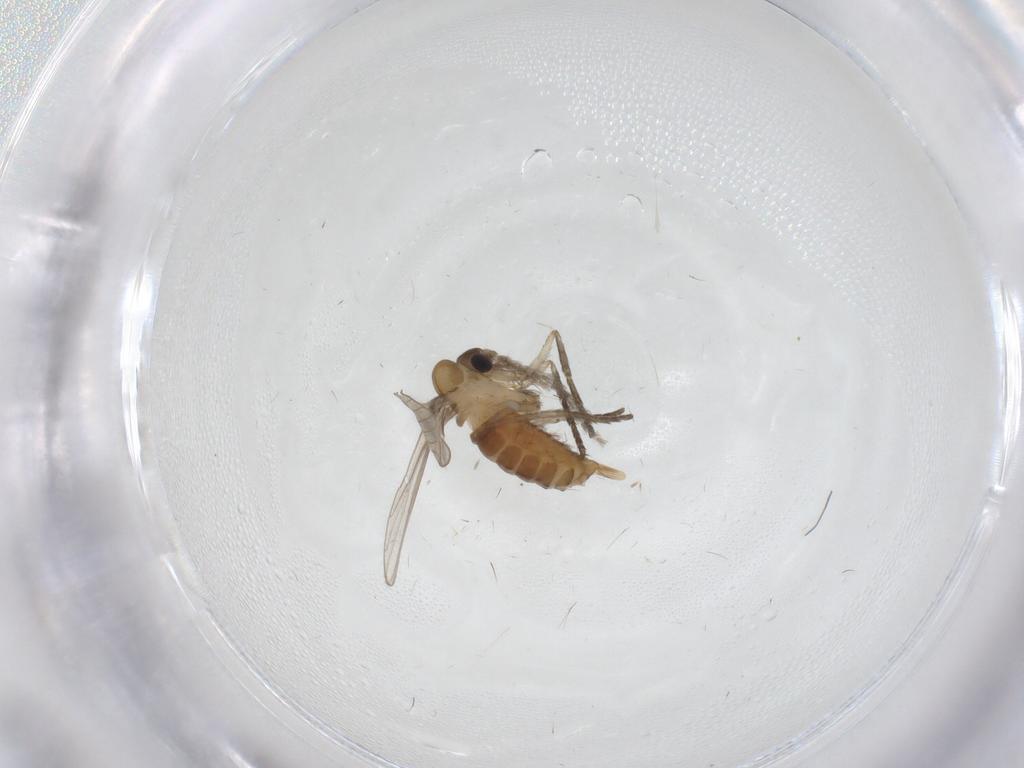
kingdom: Animalia
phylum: Arthropoda
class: Insecta
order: Diptera
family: Psychodidae
